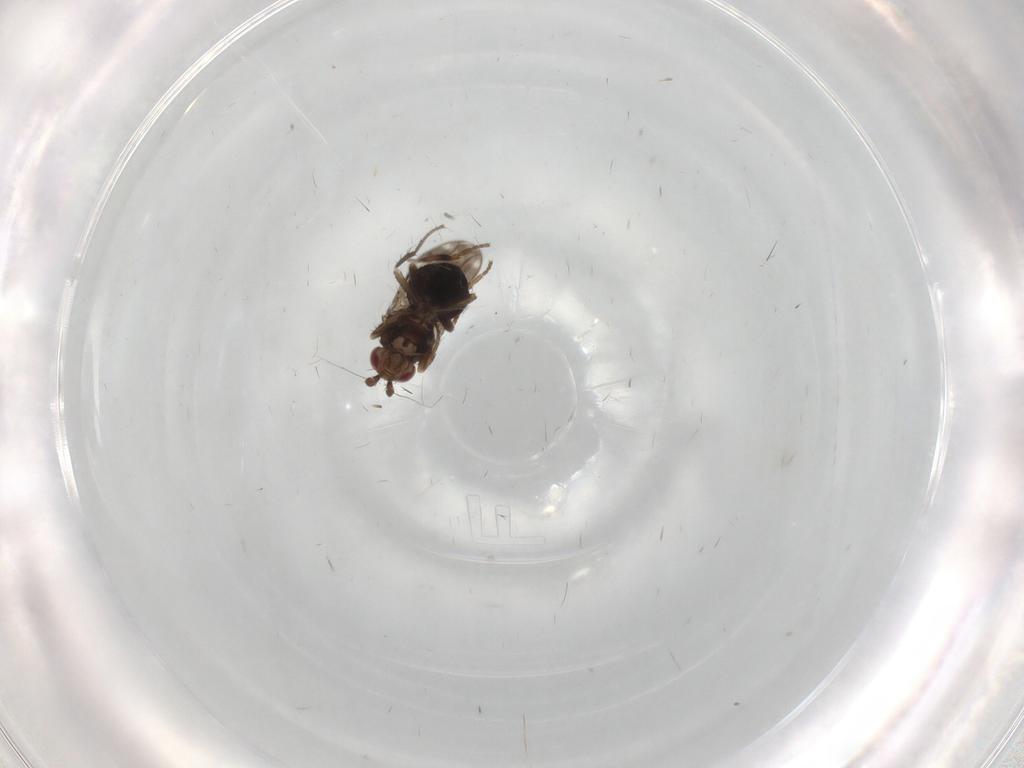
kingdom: Animalia
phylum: Arthropoda
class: Insecta
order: Diptera
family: Sphaeroceridae
